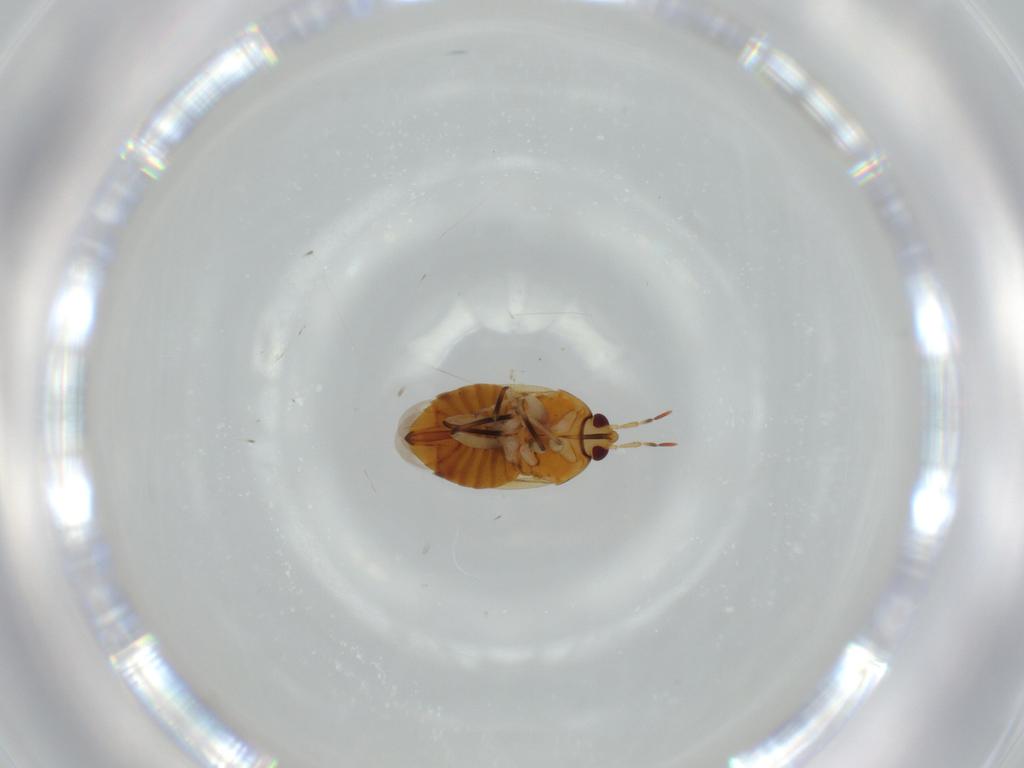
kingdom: Animalia
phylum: Arthropoda
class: Insecta
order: Hemiptera
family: Anthocoridae
